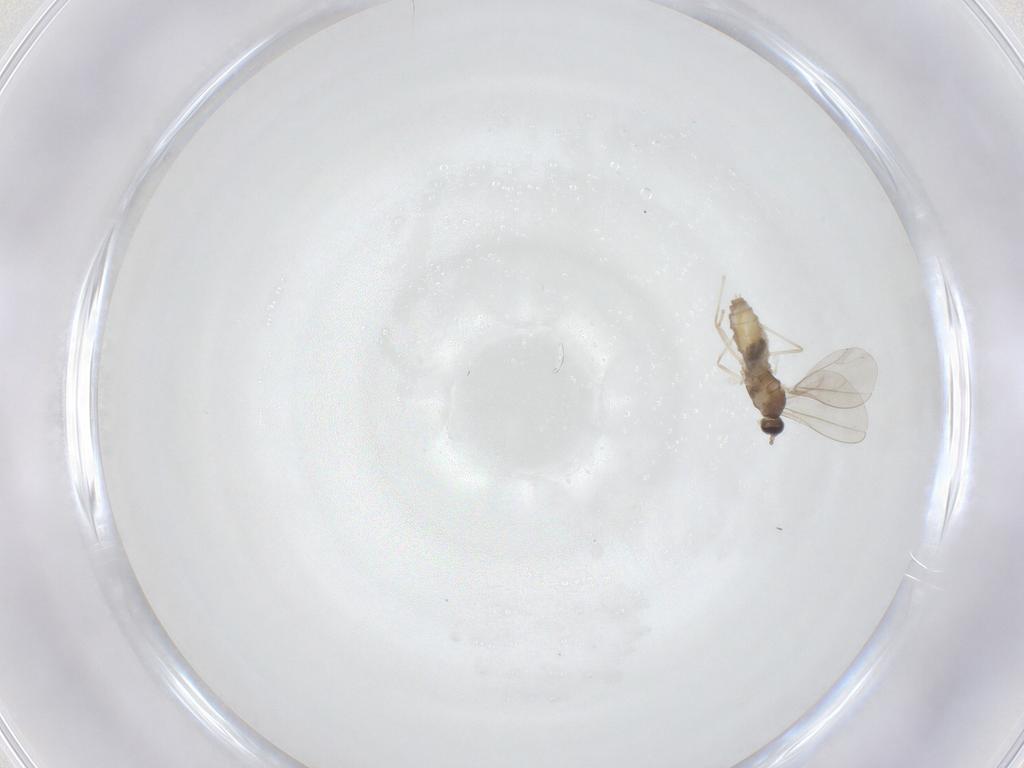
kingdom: Animalia
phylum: Arthropoda
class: Insecta
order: Diptera
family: Cecidomyiidae
